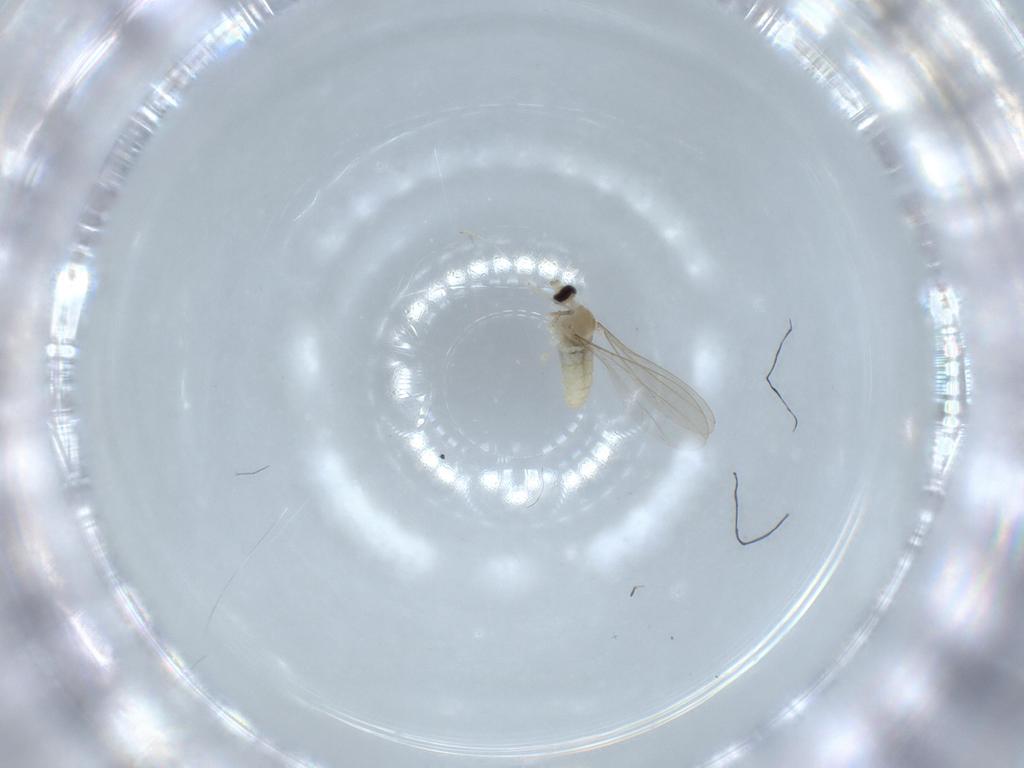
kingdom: Animalia
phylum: Arthropoda
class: Insecta
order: Diptera
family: Cecidomyiidae
